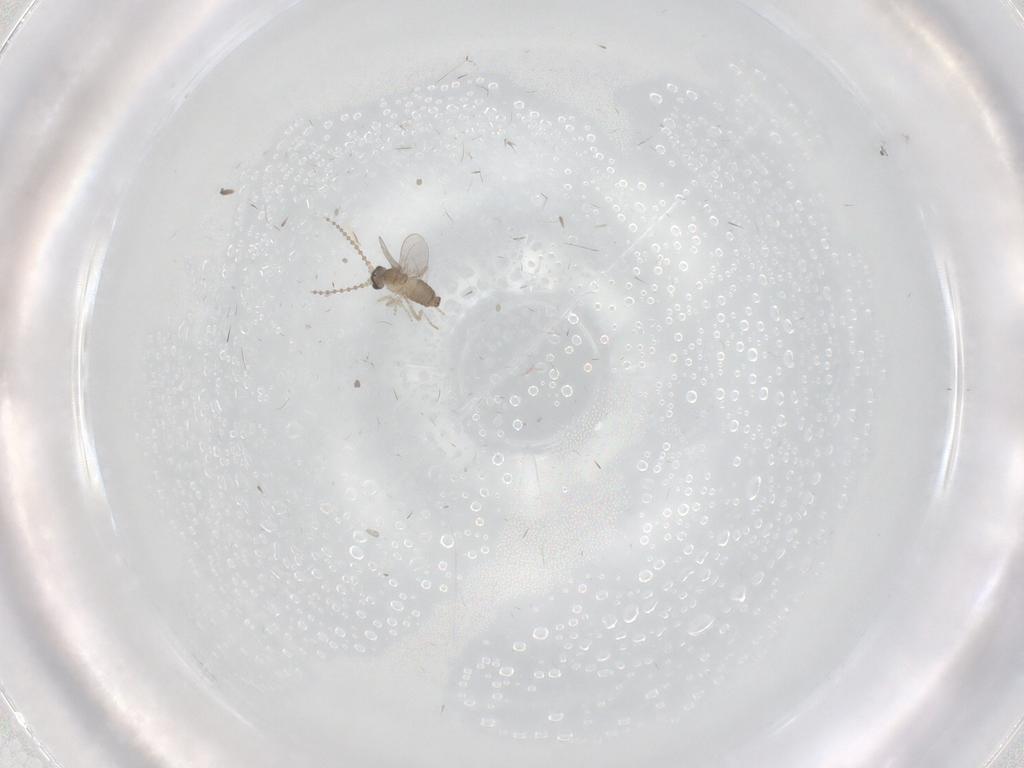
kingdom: Animalia
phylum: Arthropoda
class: Insecta
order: Diptera
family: Cecidomyiidae
